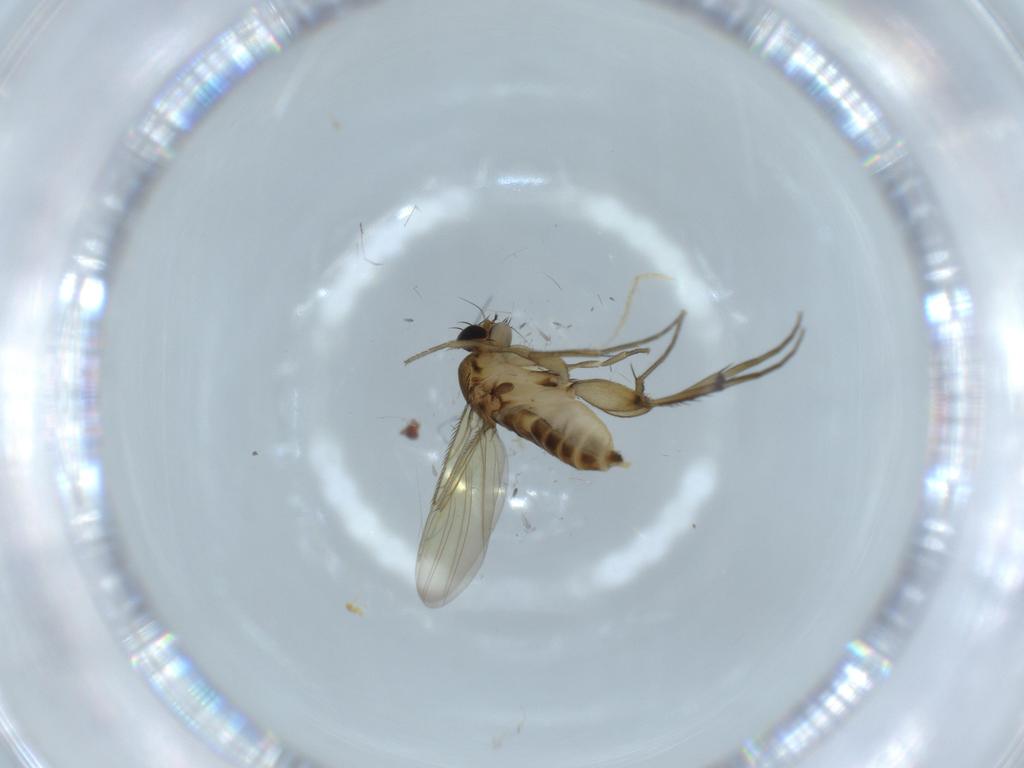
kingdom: Animalia
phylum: Arthropoda
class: Insecta
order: Diptera
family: Phoridae
